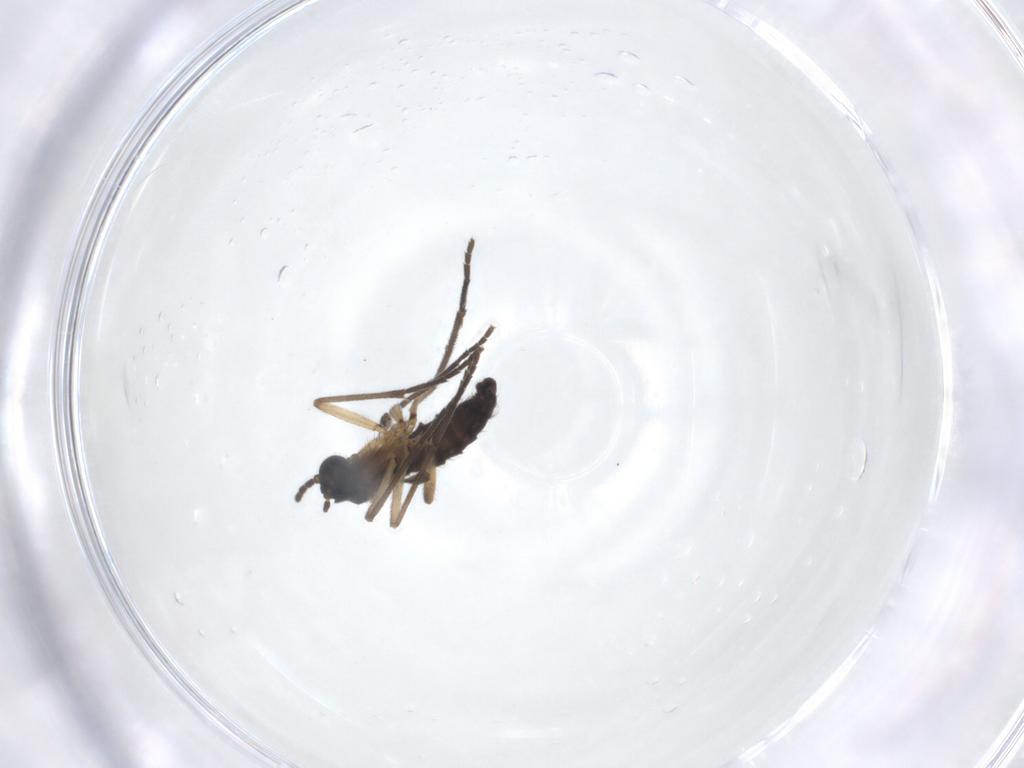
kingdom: Animalia
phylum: Arthropoda
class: Insecta
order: Diptera
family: Sciaridae
